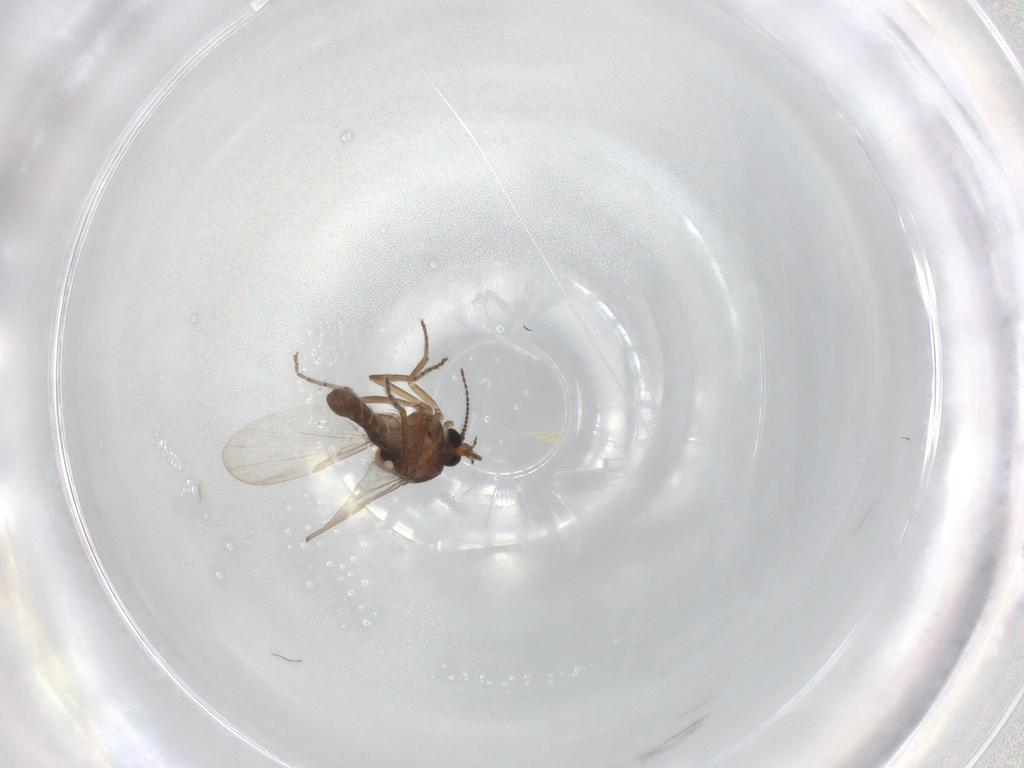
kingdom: Animalia
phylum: Arthropoda
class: Insecta
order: Diptera
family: Ceratopogonidae
